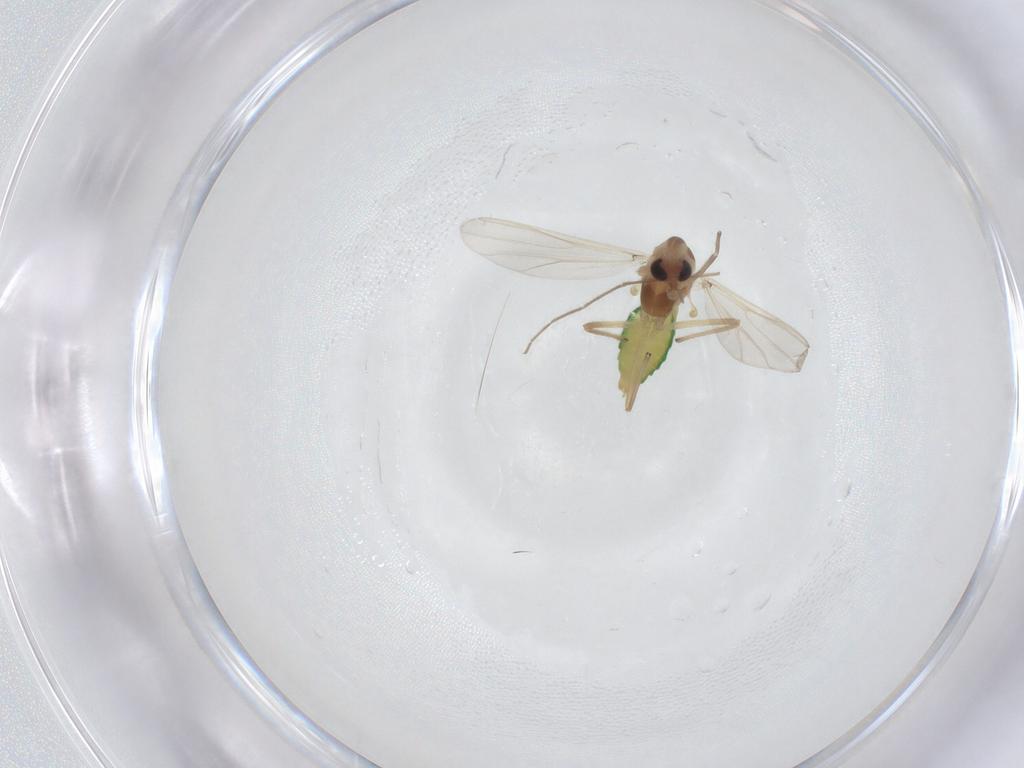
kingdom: Animalia
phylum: Arthropoda
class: Insecta
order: Diptera
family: Chironomidae
